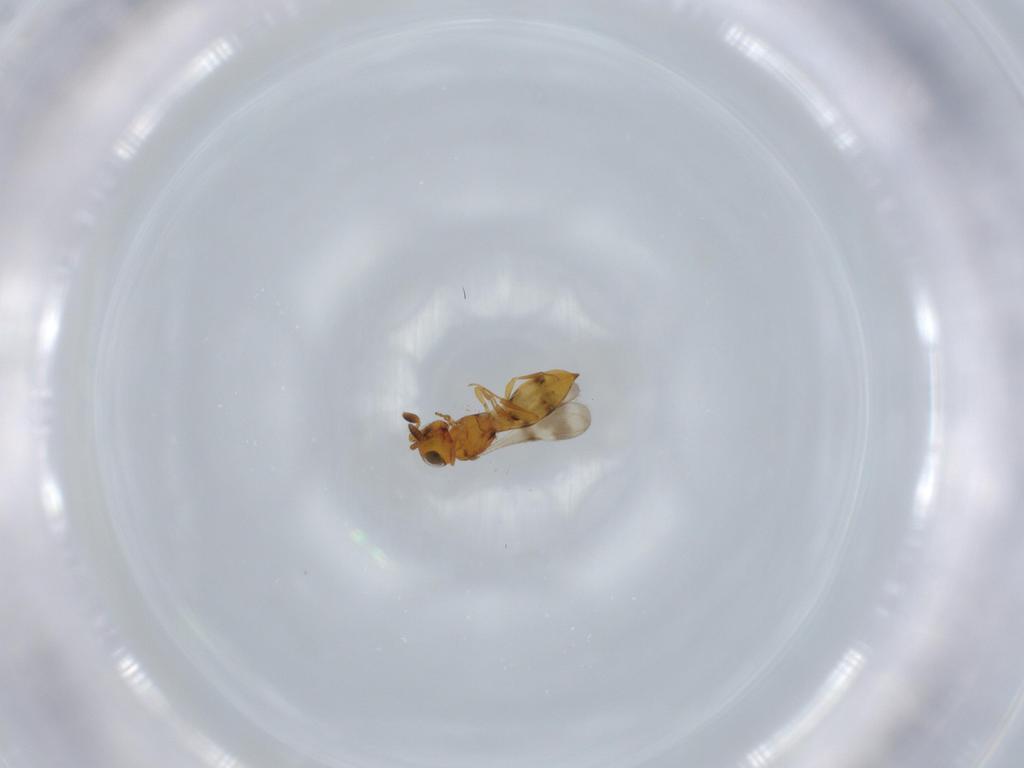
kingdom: Animalia
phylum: Arthropoda
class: Insecta
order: Hymenoptera
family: Scelionidae
